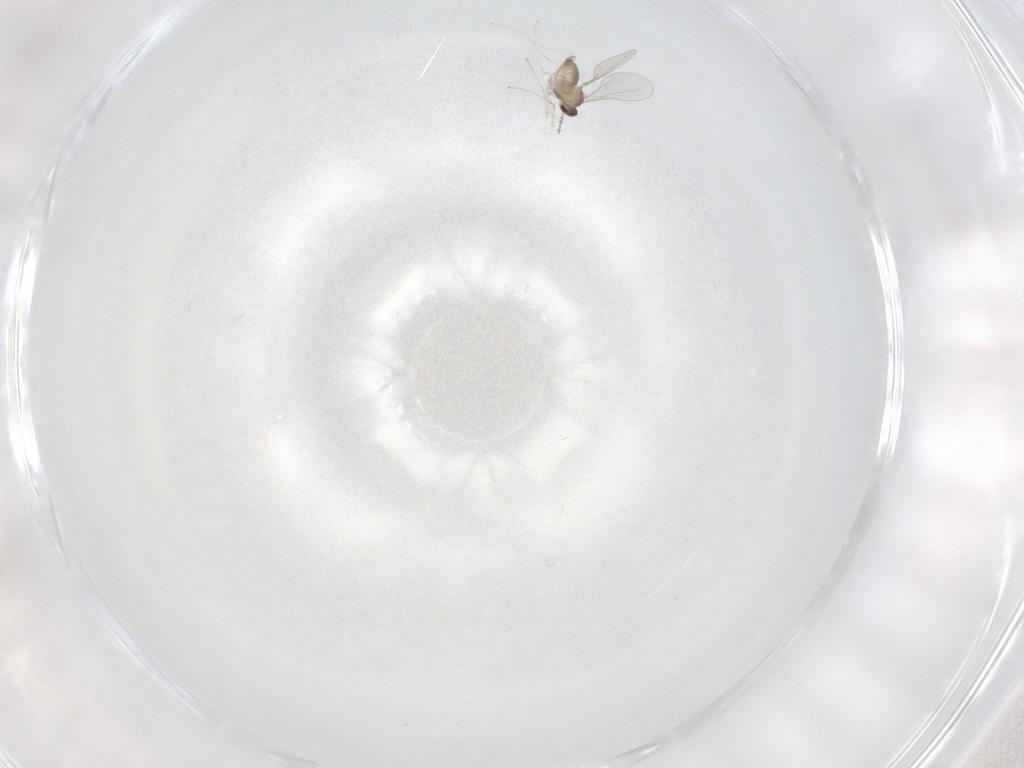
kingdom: Animalia
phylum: Arthropoda
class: Insecta
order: Diptera
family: Cecidomyiidae
